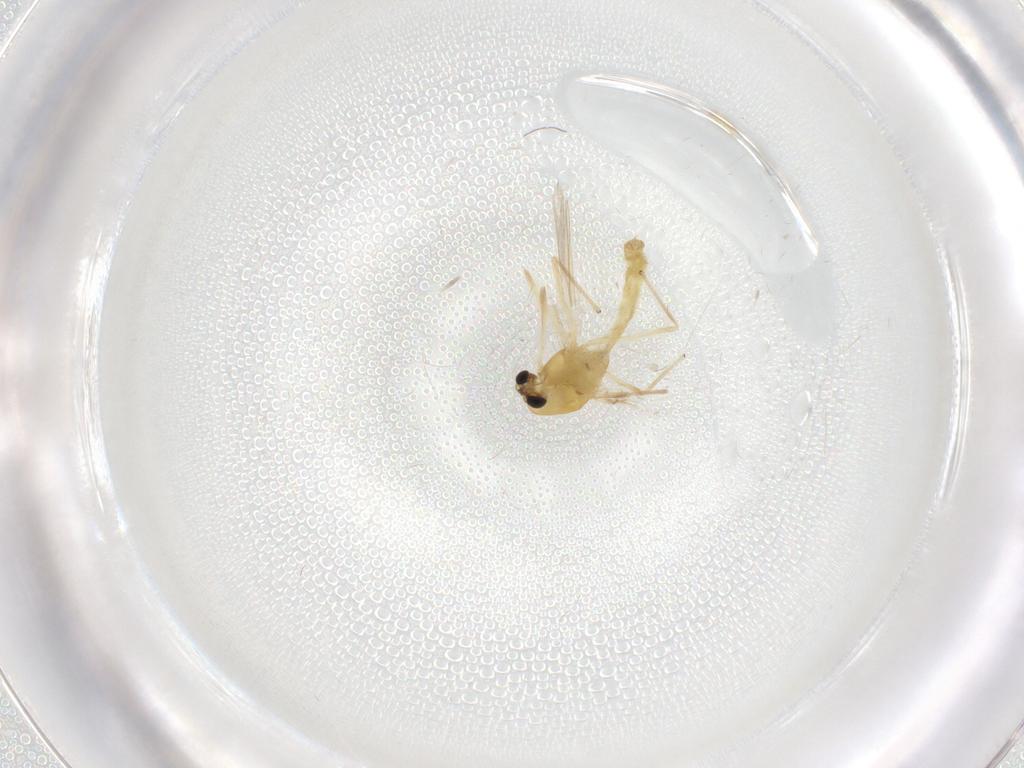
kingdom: Animalia
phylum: Arthropoda
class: Insecta
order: Diptera
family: Chironomidae
